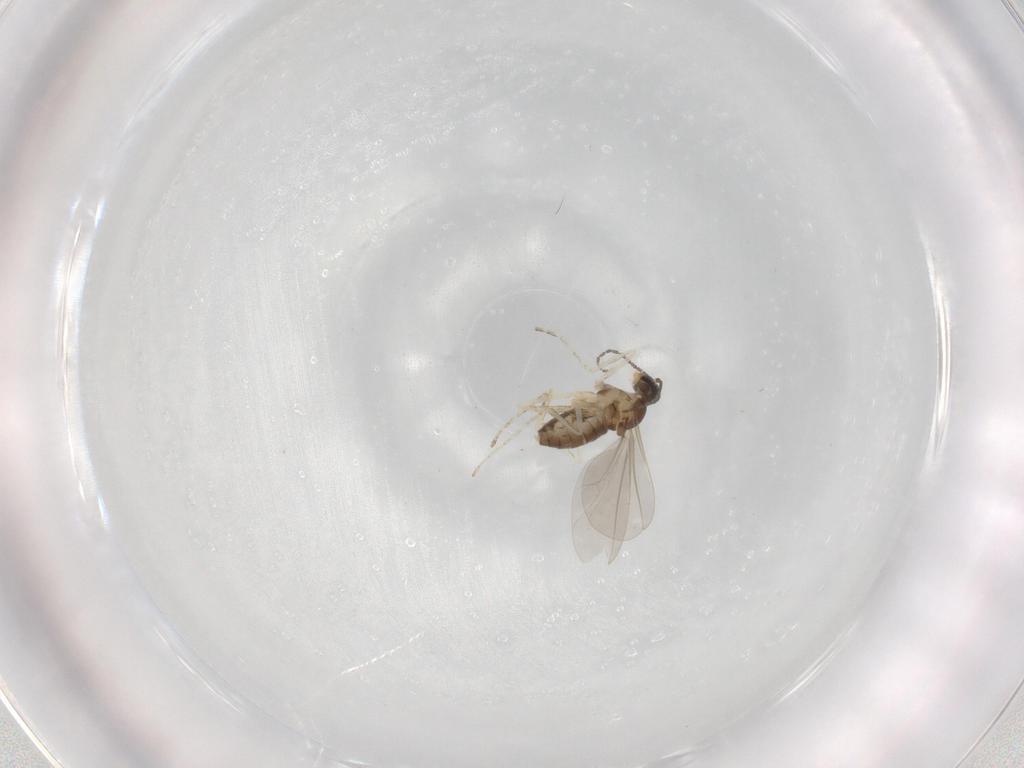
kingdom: Animalia
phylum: Arthropoda
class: Insecta
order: Diptera
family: Cecidomyiidae
